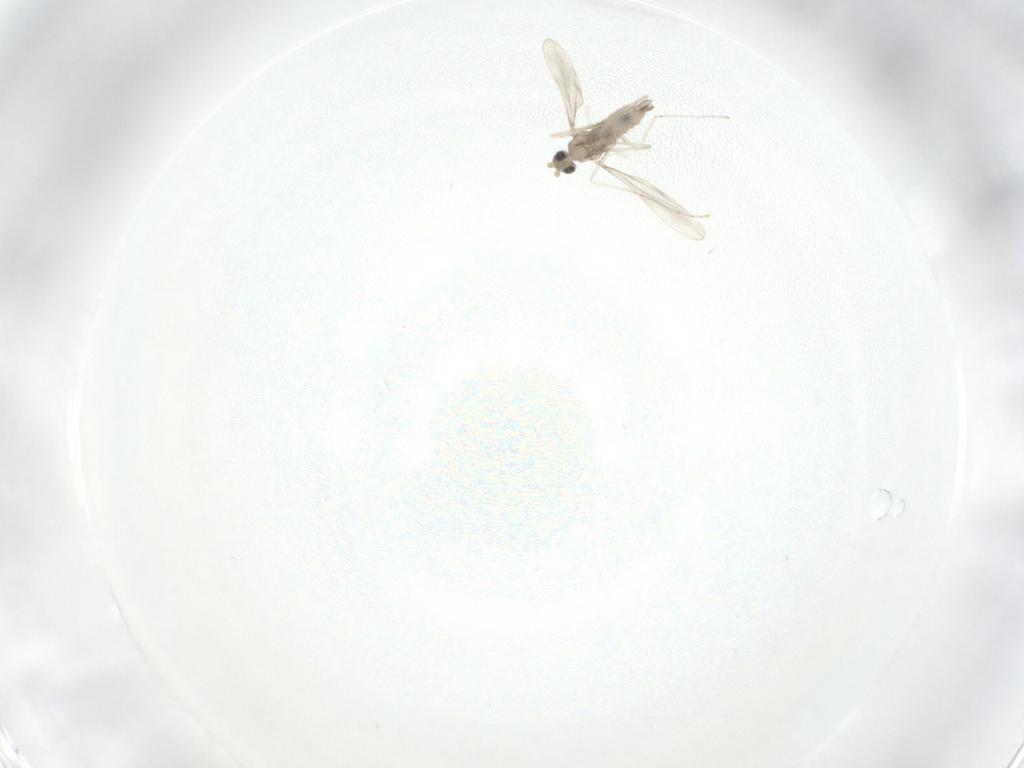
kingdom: Animalia
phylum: Arthropoda
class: Insecta
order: Diptera
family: Cecidomyiidae
